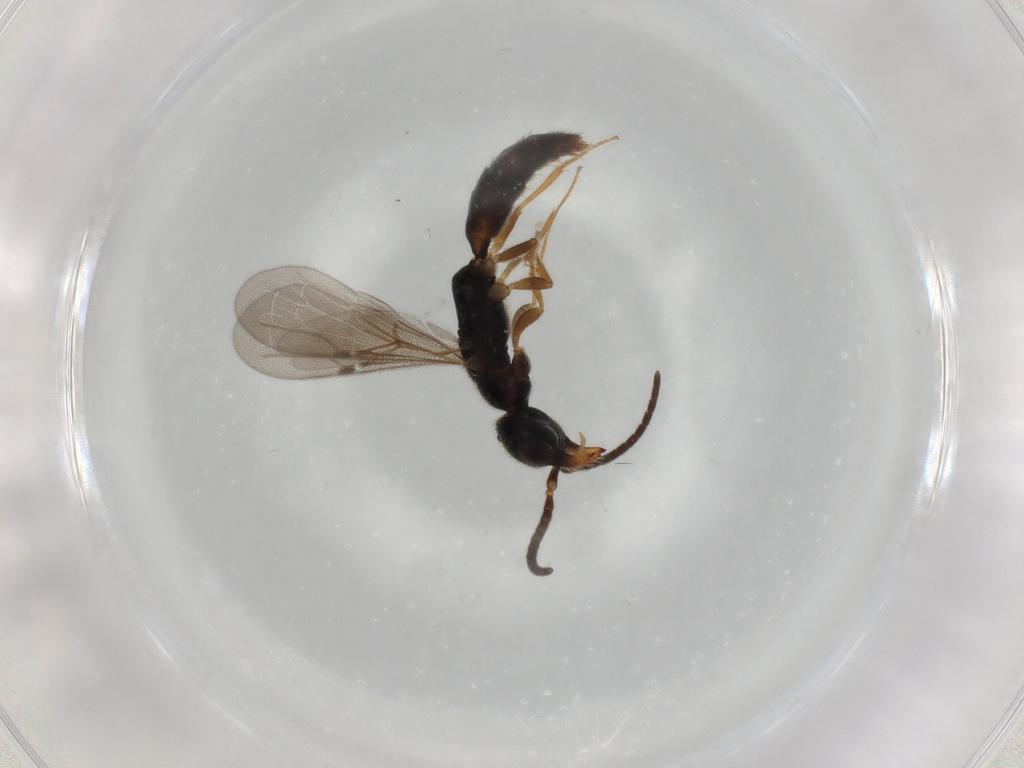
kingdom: Animalia
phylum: Arthropoda
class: Insecta
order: Hymenoptera
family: Bethylidae
